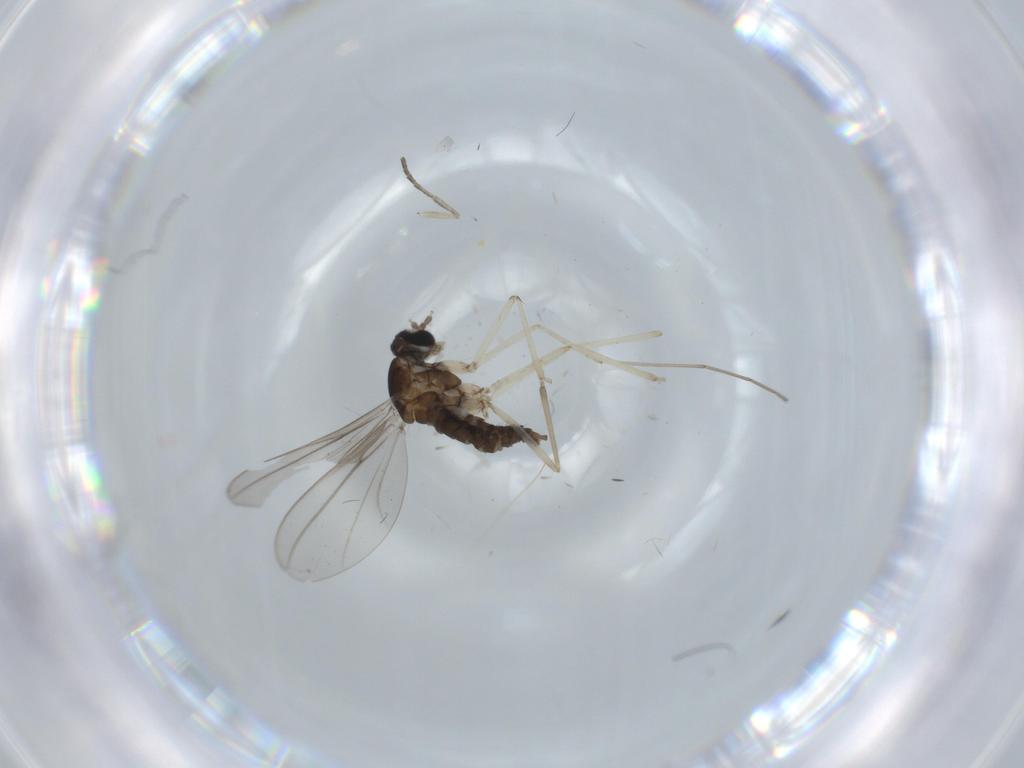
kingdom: Animalia
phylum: Arthropoda
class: Insecta
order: Diptera
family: Cecidomyiidae
